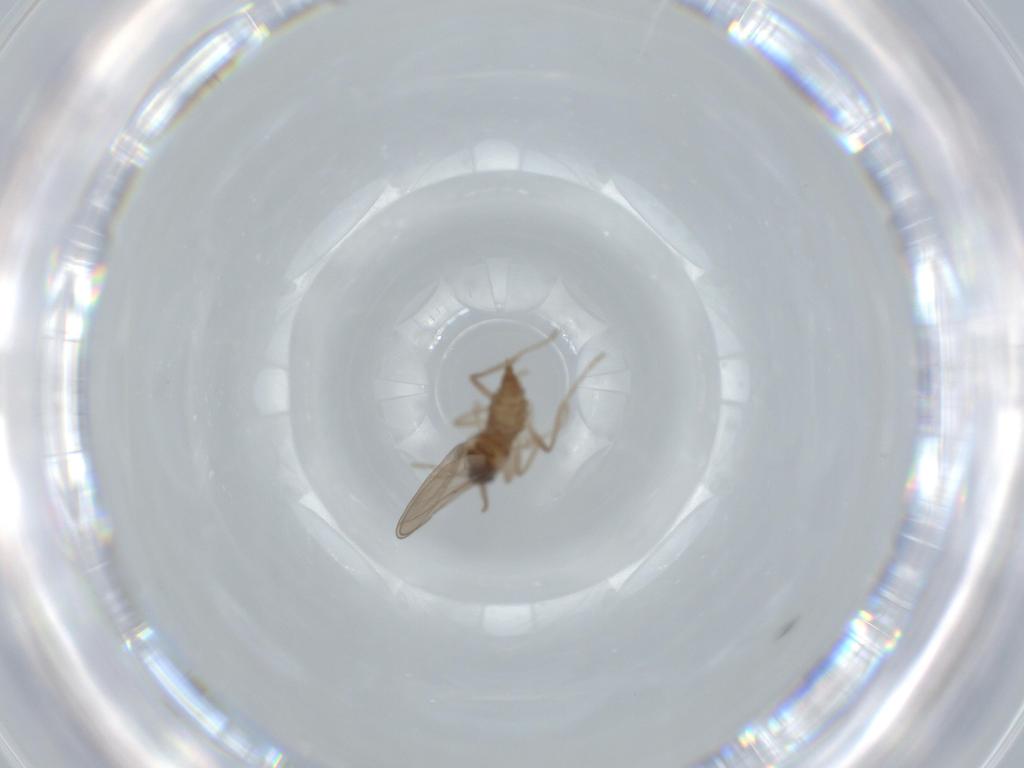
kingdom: Animalia
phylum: Arthropoda
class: Insecta
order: Diptera
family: Cecidomyiidae
